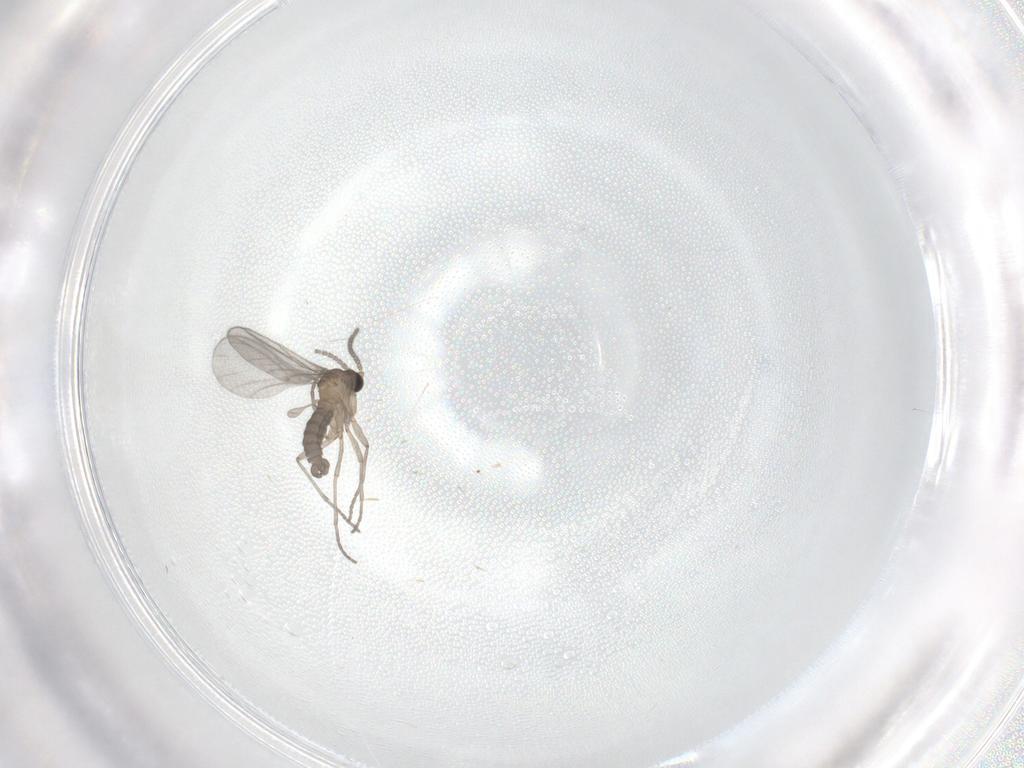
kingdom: Animalia
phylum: Arthropoda
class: Insecta
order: Diptera
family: Sciaridae
